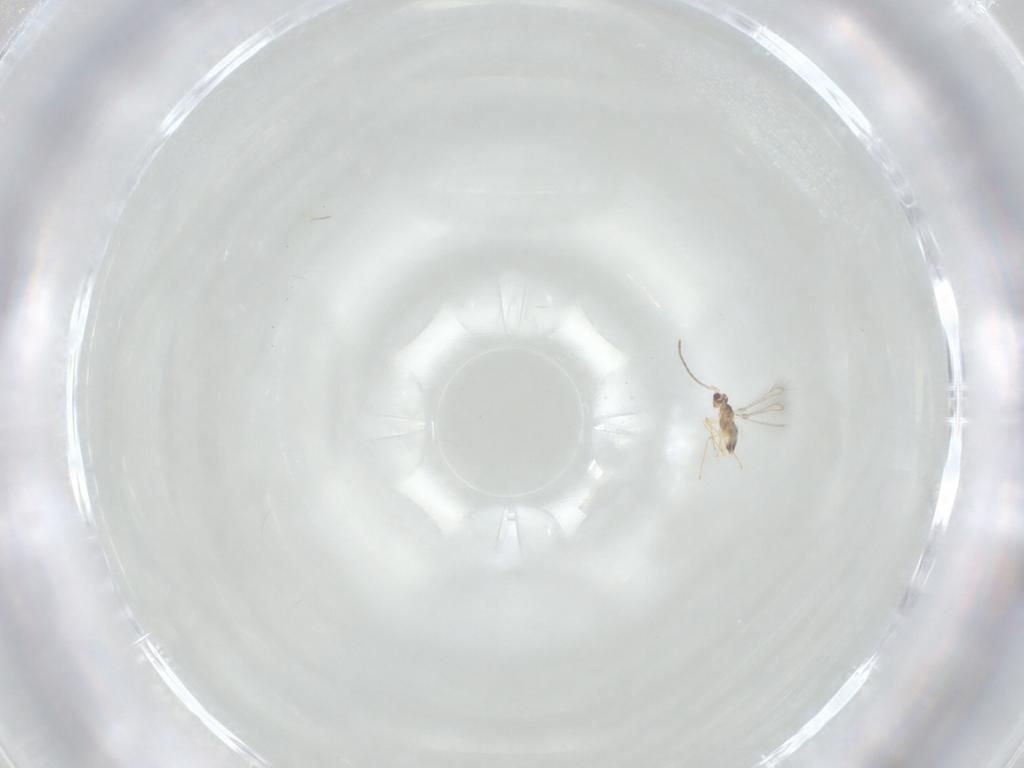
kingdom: Animalia
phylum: Arthropoda
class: Insecta
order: Hymenoptera
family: Mymaridae
